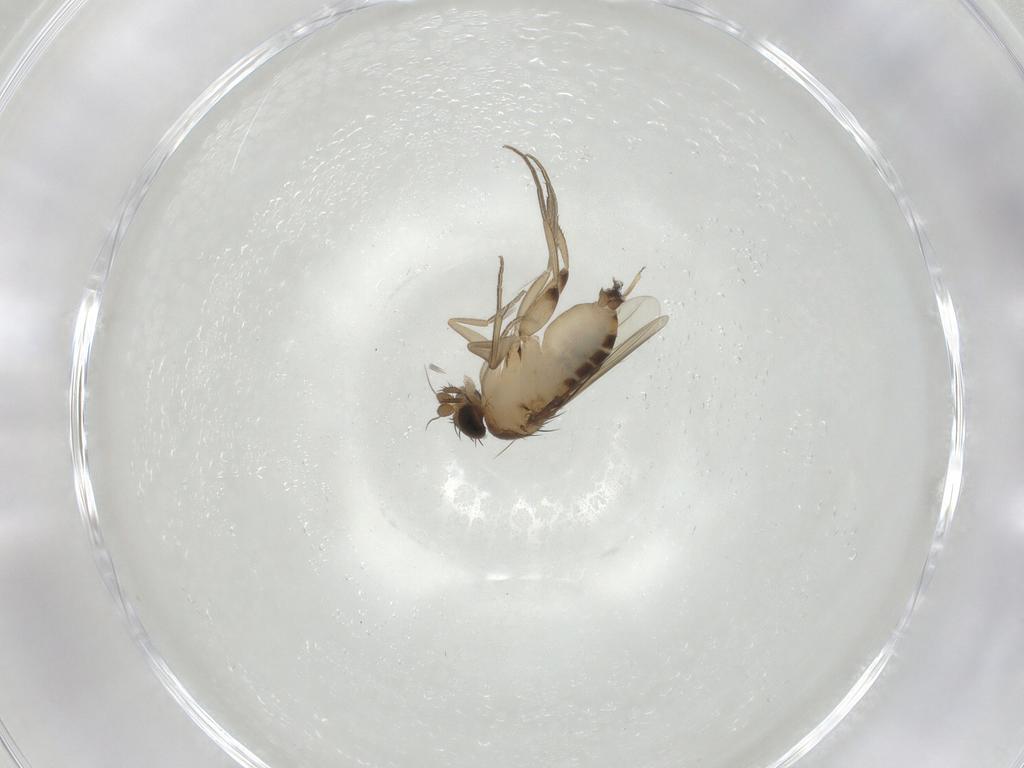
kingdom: Animalia
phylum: Arthropoda
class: Insecta
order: Diptera
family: Phoridae
